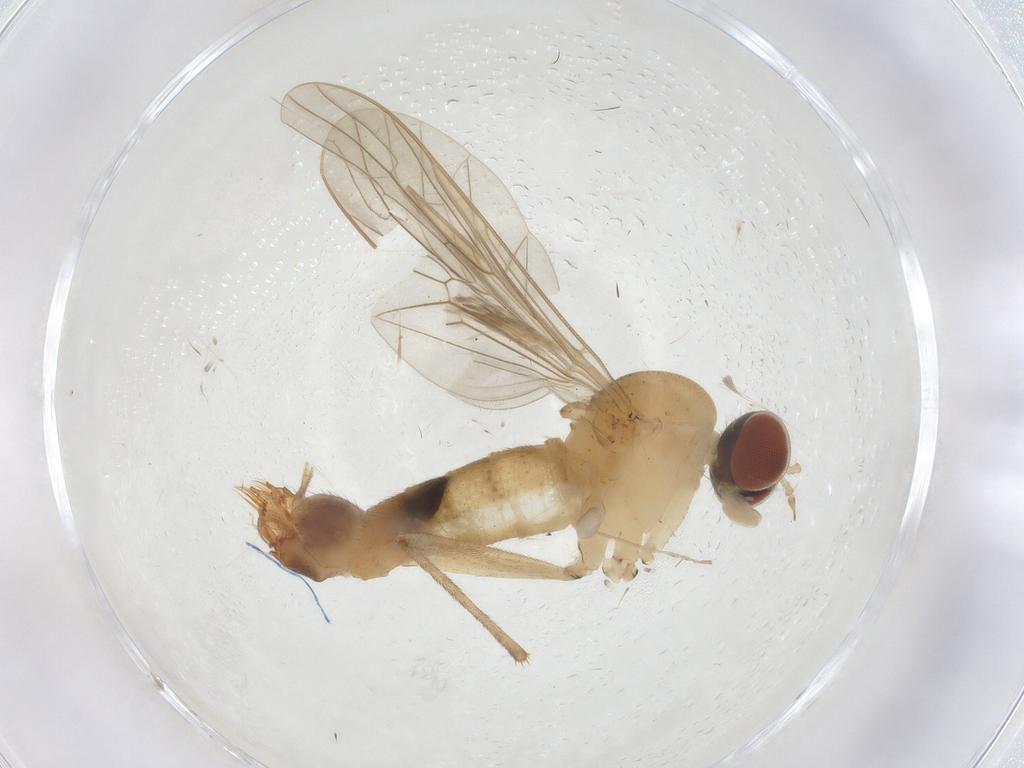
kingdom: Animalia
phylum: Arthropoda
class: Insecta
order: Diptera
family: Apsilocephalidae
